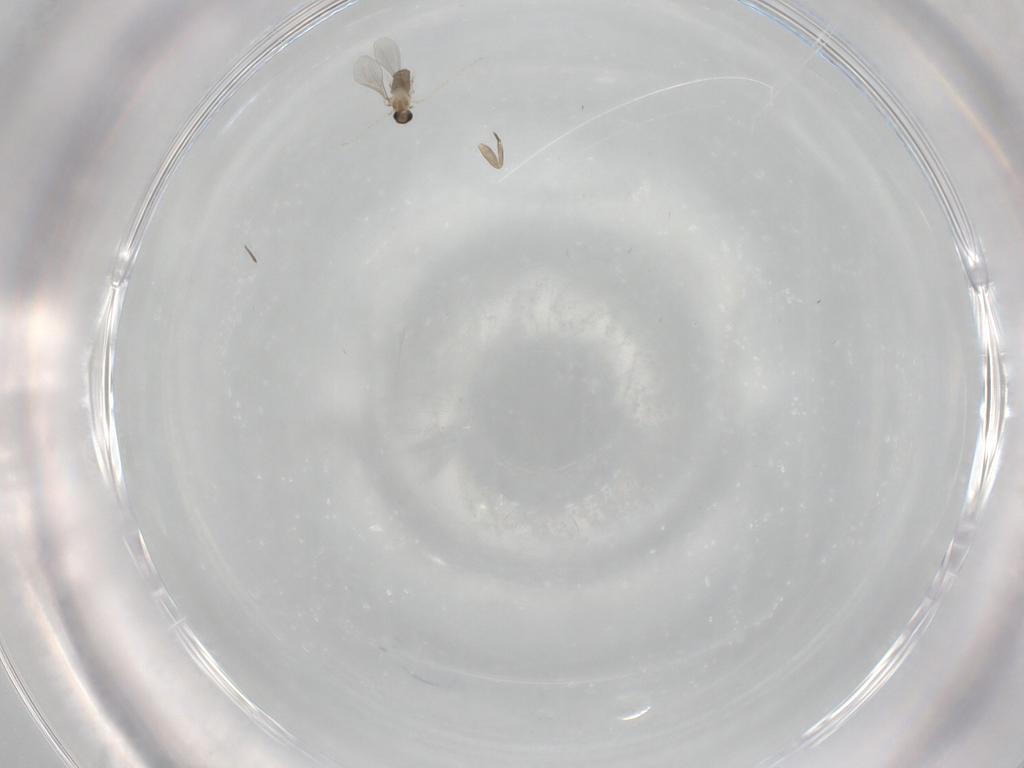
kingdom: Animalia
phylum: Arthropoda
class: Insecta
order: Diptera
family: Cecidomyiidae
